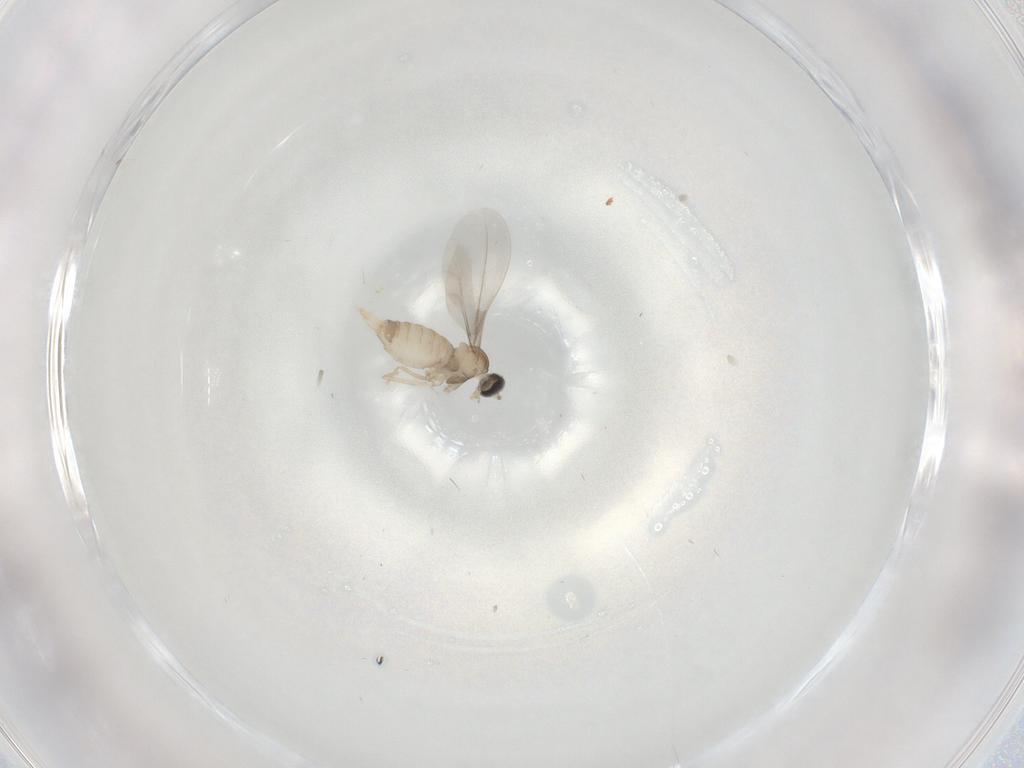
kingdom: Animalia
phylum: Arthropoda
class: Insecta
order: Diptera
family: Cecidomyiidae
